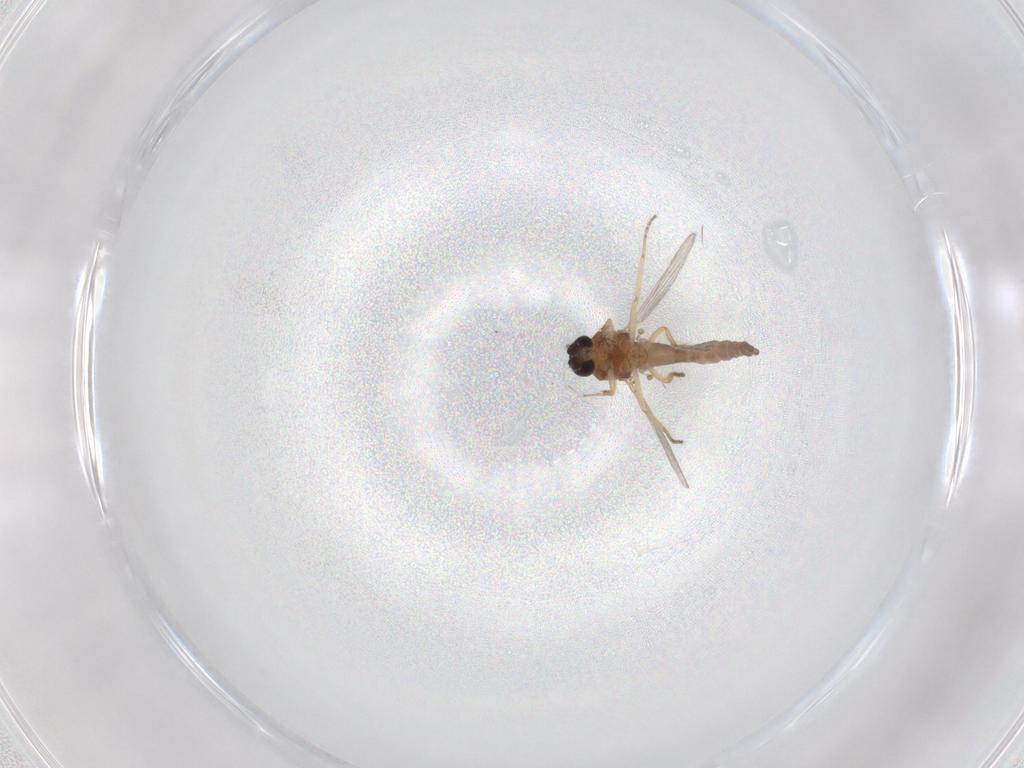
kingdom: Animalia
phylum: Arthropoda
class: Insecta
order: Diptera
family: Ceratopogonidae
